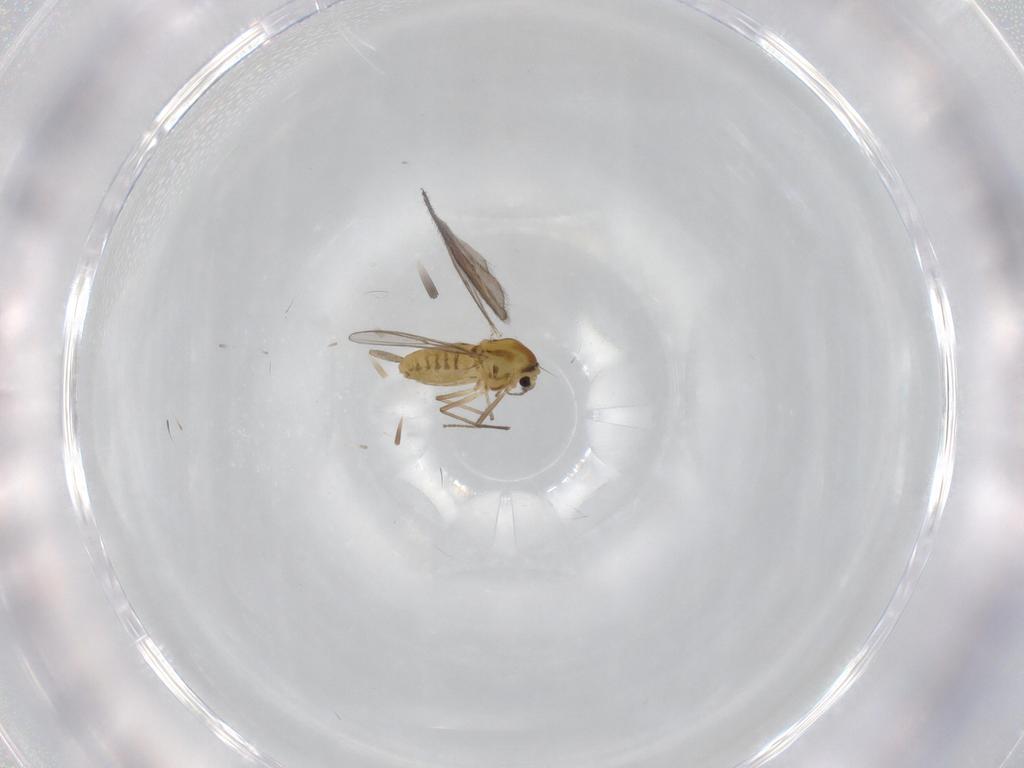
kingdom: Animalia
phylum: Arthropoda
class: Insecta
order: Diptera
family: Chironomidae
